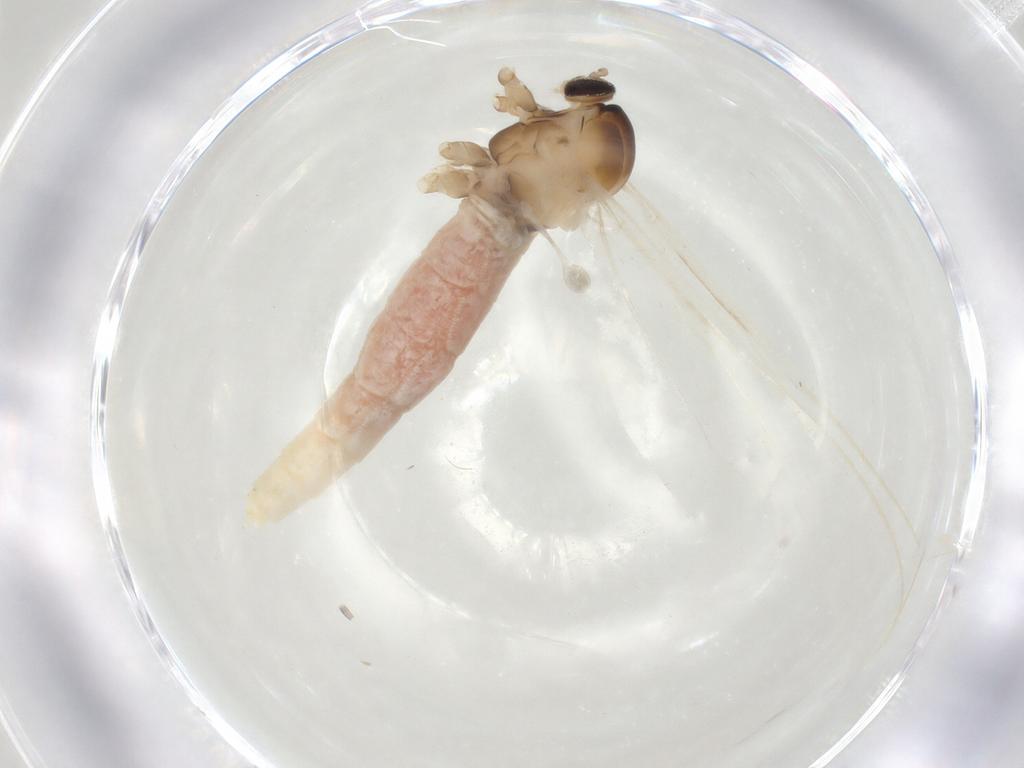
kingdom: Animalia
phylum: Arthropoda
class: Insecta
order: Diptera
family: Cecidomyiidae
